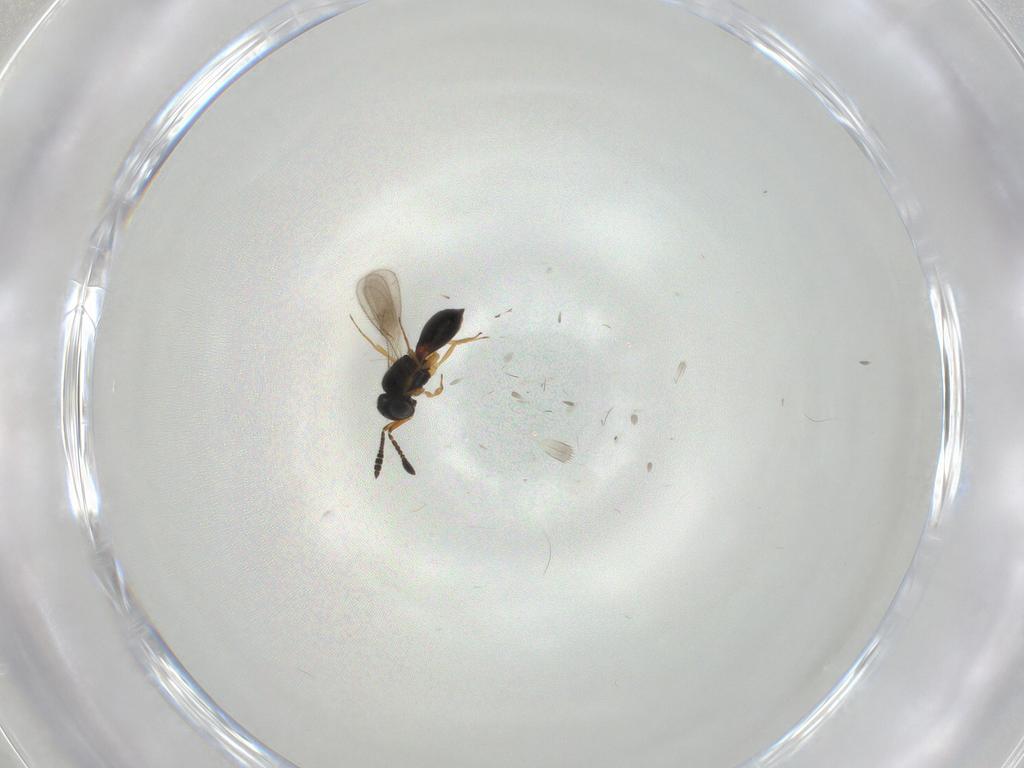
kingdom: Animalia
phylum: Arthropoda
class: Insecta
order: Hymenoptera
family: Scelionidae
